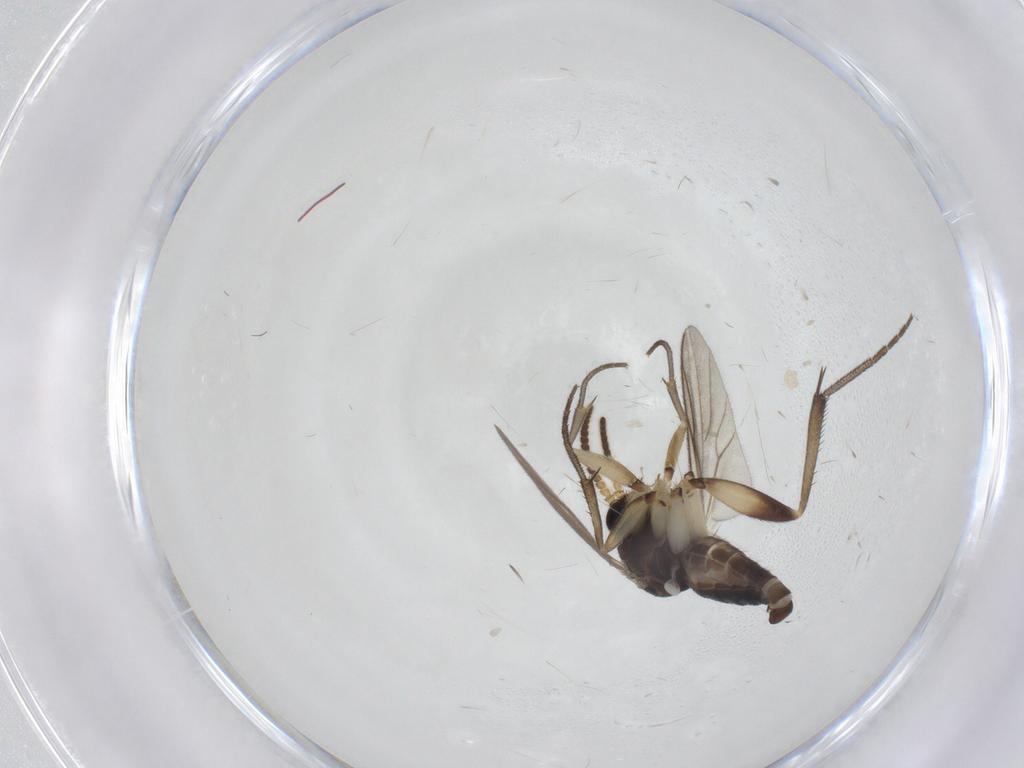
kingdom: Animalia
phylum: Arthropoda
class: Insecta
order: Diptera
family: Mycetophilidae
